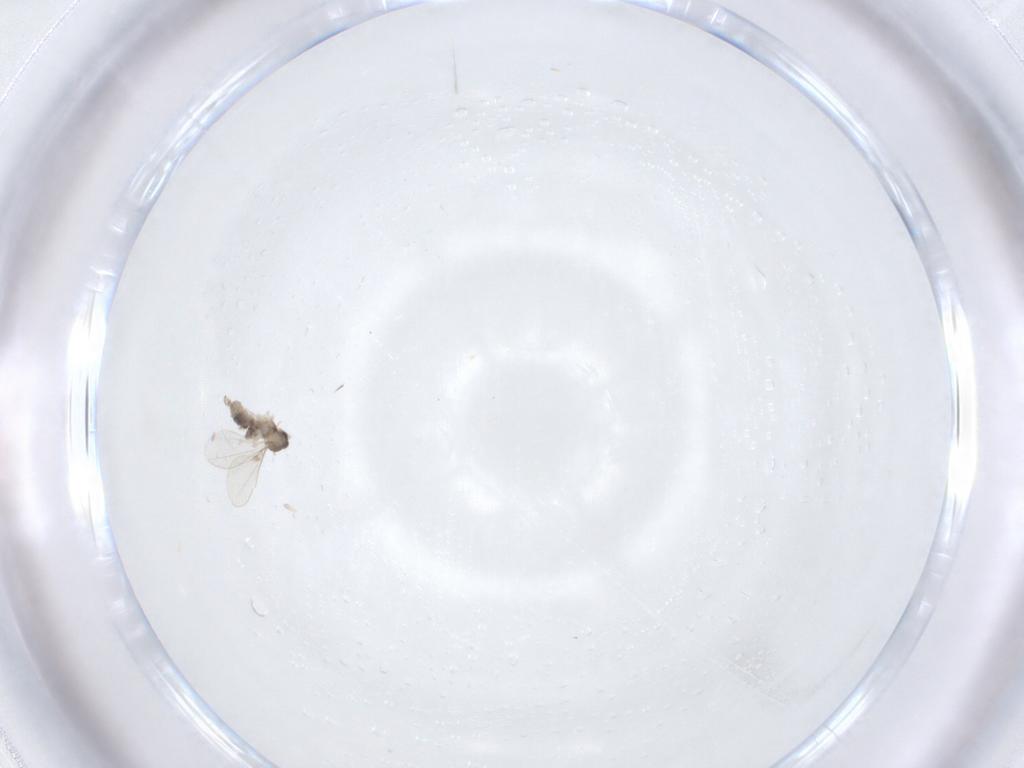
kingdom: Animalia
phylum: Arthropoda
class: Insecta
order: Diptera
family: Cecidomyiidae
